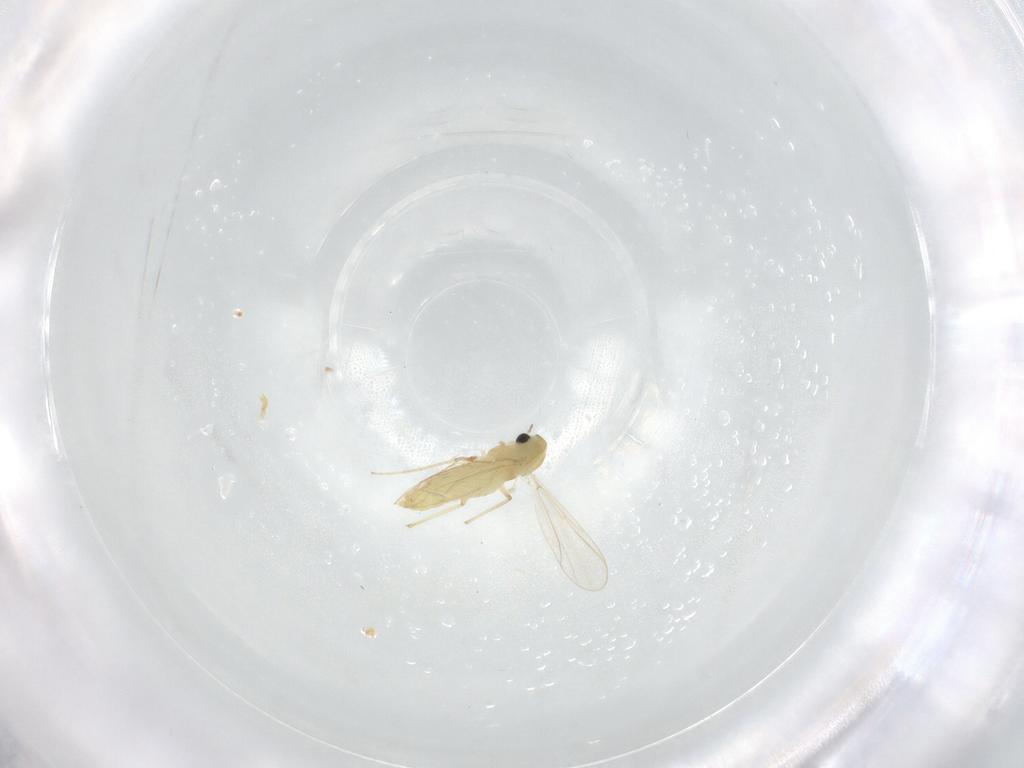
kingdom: Animalia
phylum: Arthropoda
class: Insecta
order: Diptera
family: Chironomidae
